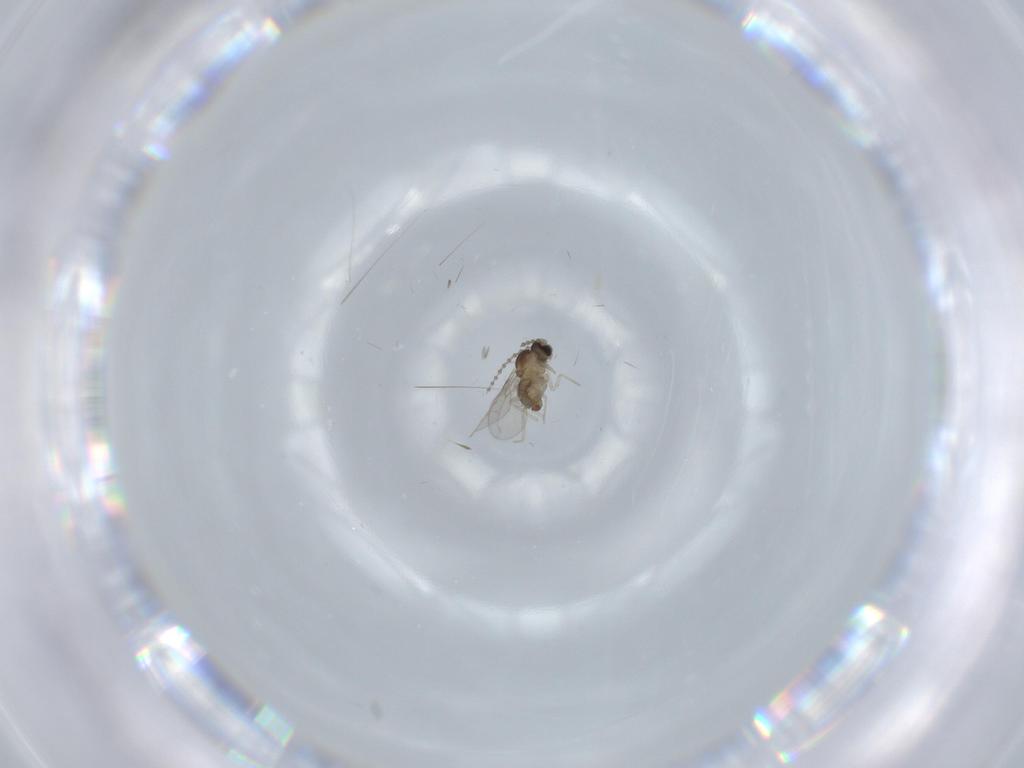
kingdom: Animalia
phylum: Arthropoda
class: Insecta
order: Diptera
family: Cecidomyiidae
